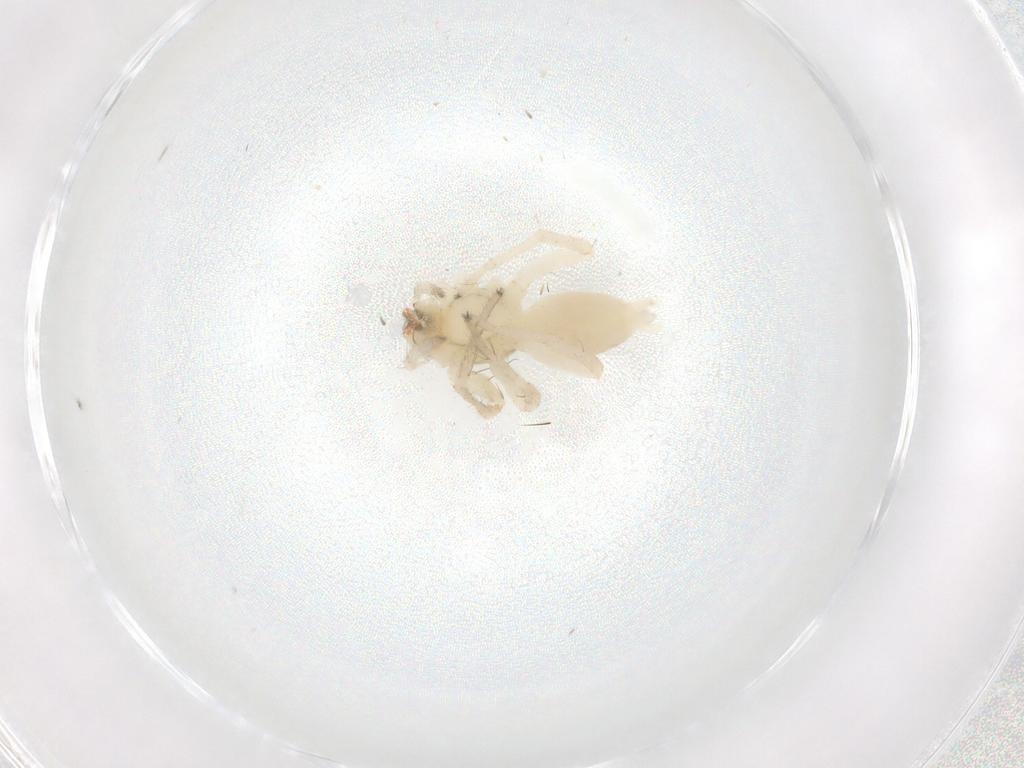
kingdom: Animalia
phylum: Arthropoda
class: Arachnida
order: Araneae
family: Anyphaenidae
